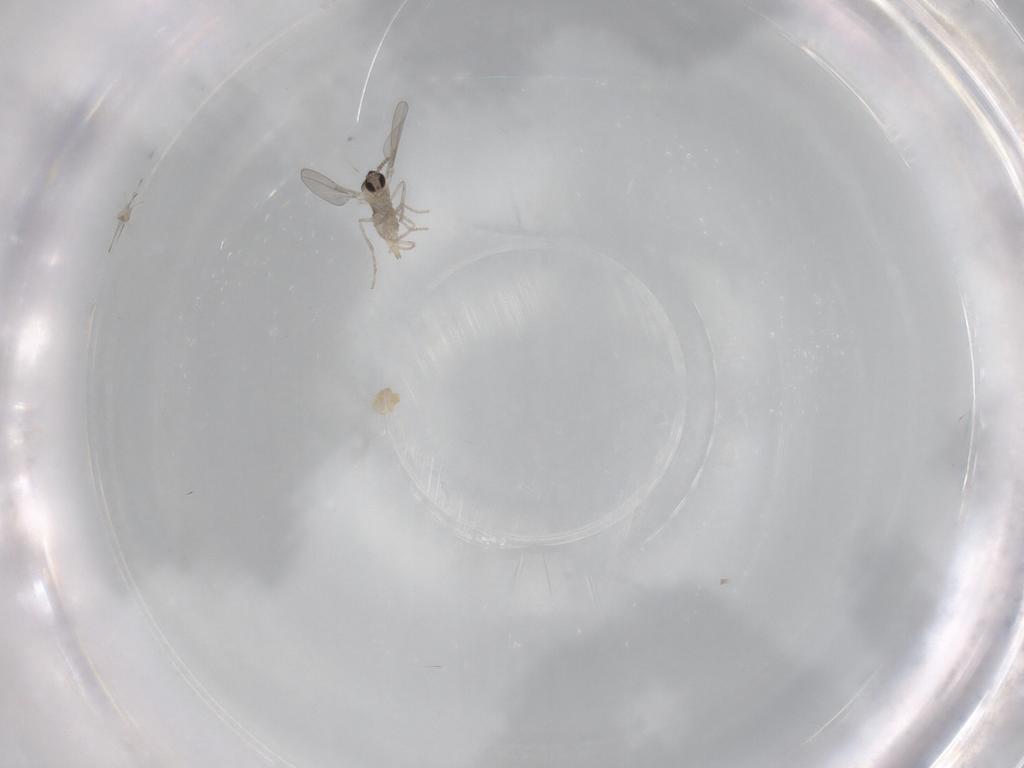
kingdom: Animalia
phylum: Arthropoda
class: Insecta
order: Diptera
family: Cecidomyiidae
